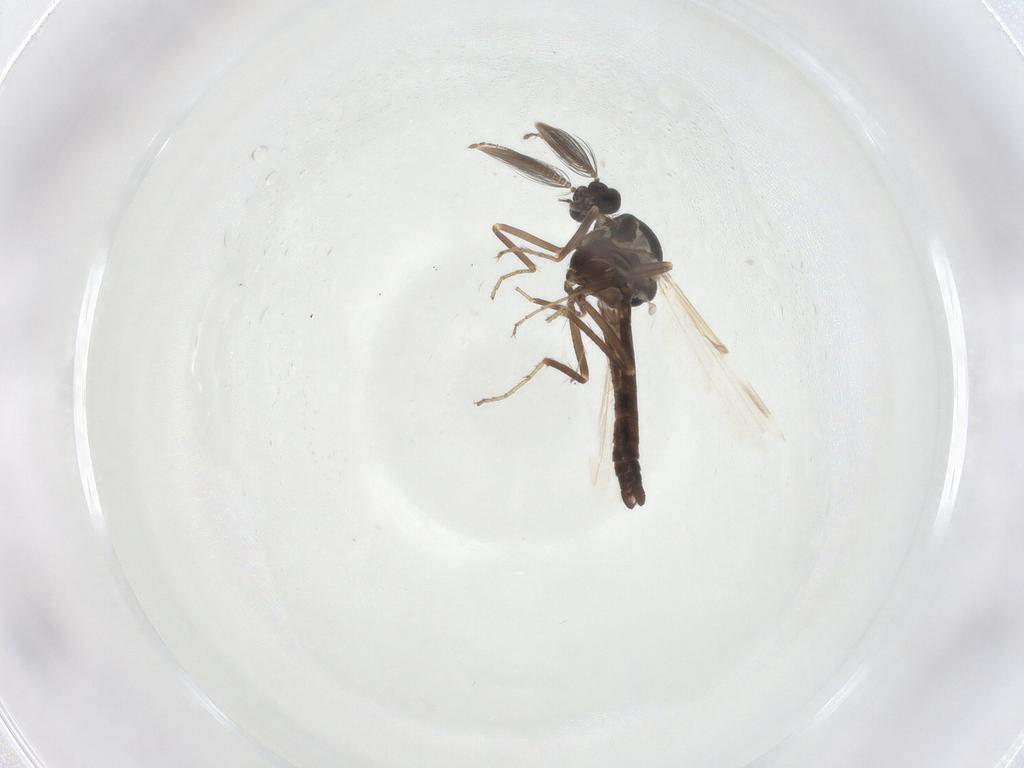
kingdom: Animalia
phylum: Arthropoda
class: Insecta
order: Diptera
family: Ceratopogonidae
